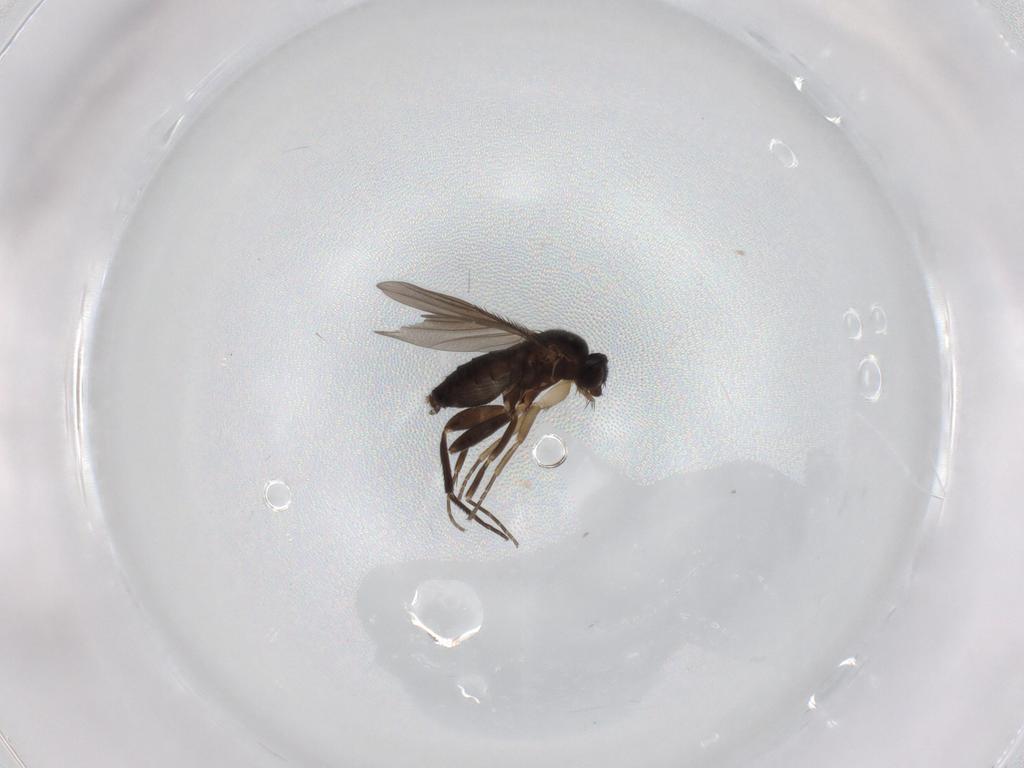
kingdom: Animalia
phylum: Arthropoda
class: Insecta
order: Diptera
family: Phoridae
